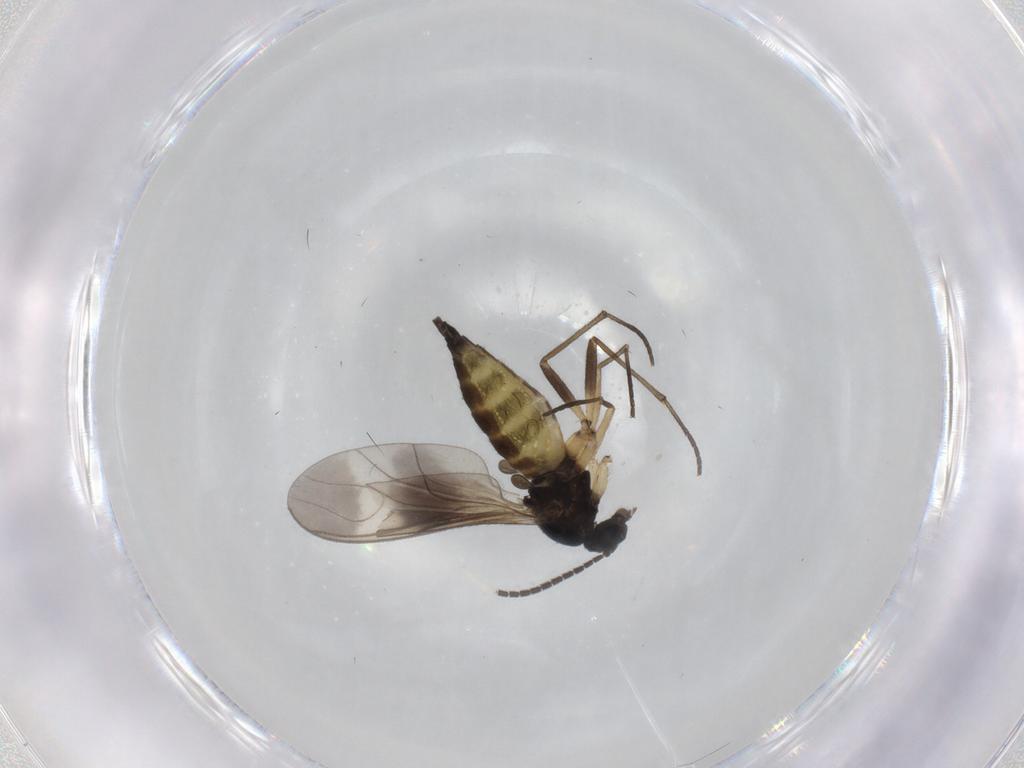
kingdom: Animalia
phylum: Arthropoda
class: Insecta
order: Diptera
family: Sciaridae
